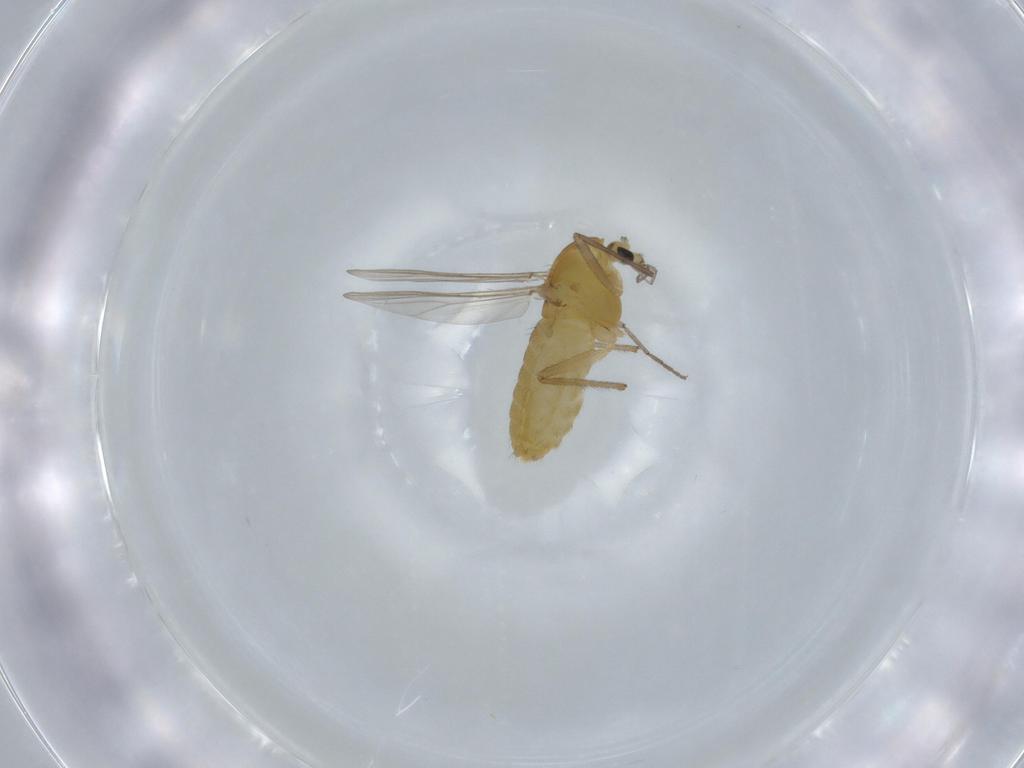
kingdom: Animalia
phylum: Arthropoda
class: Insecta
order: Diptera
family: Chironomidae
